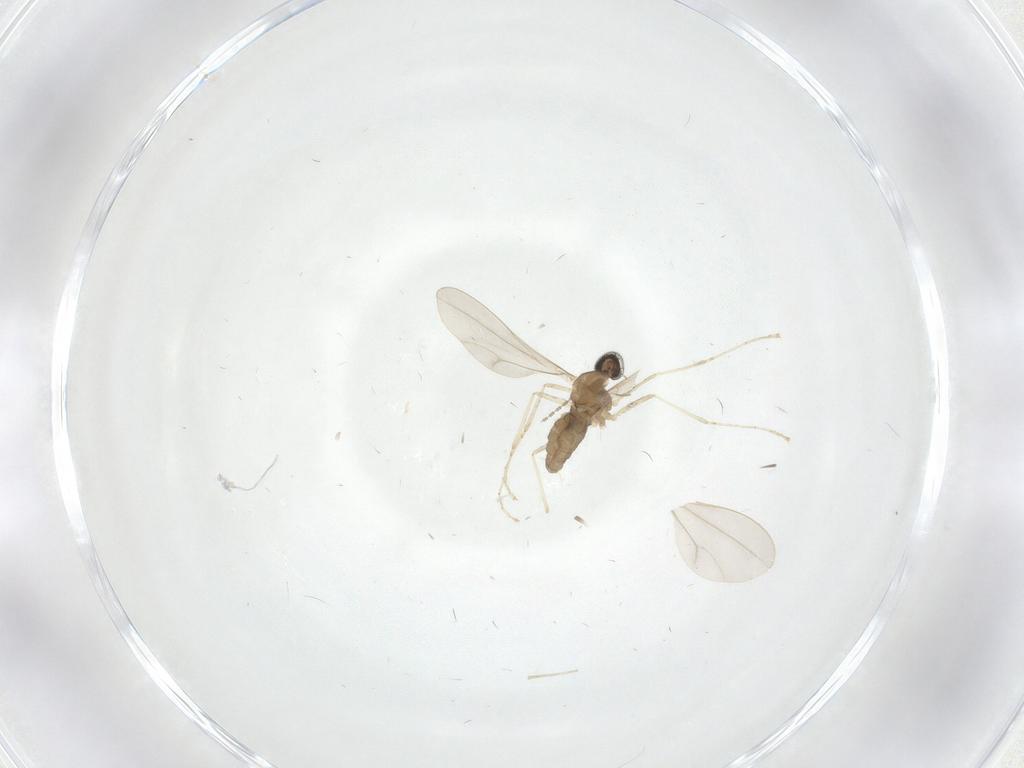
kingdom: Animalia
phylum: Arthropoda
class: Insecta
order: Diptera
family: Cecidomyiidae
